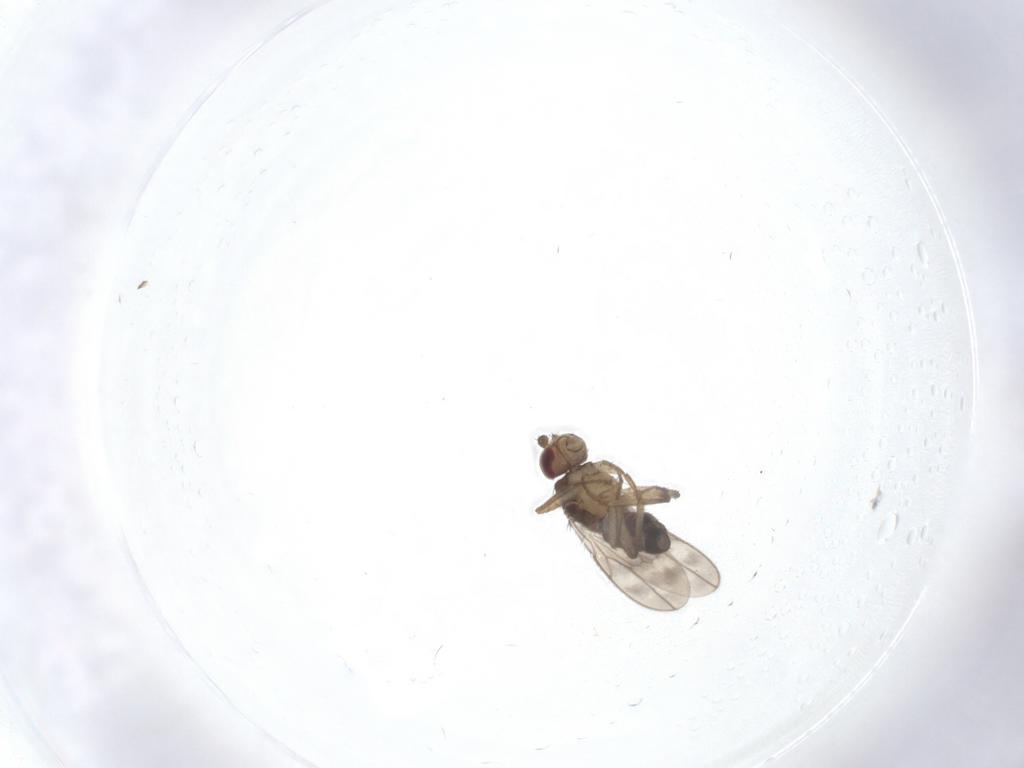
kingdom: Animalia
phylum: Arthropoda
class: Insecta
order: Diptera
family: Sphaeroceridae
